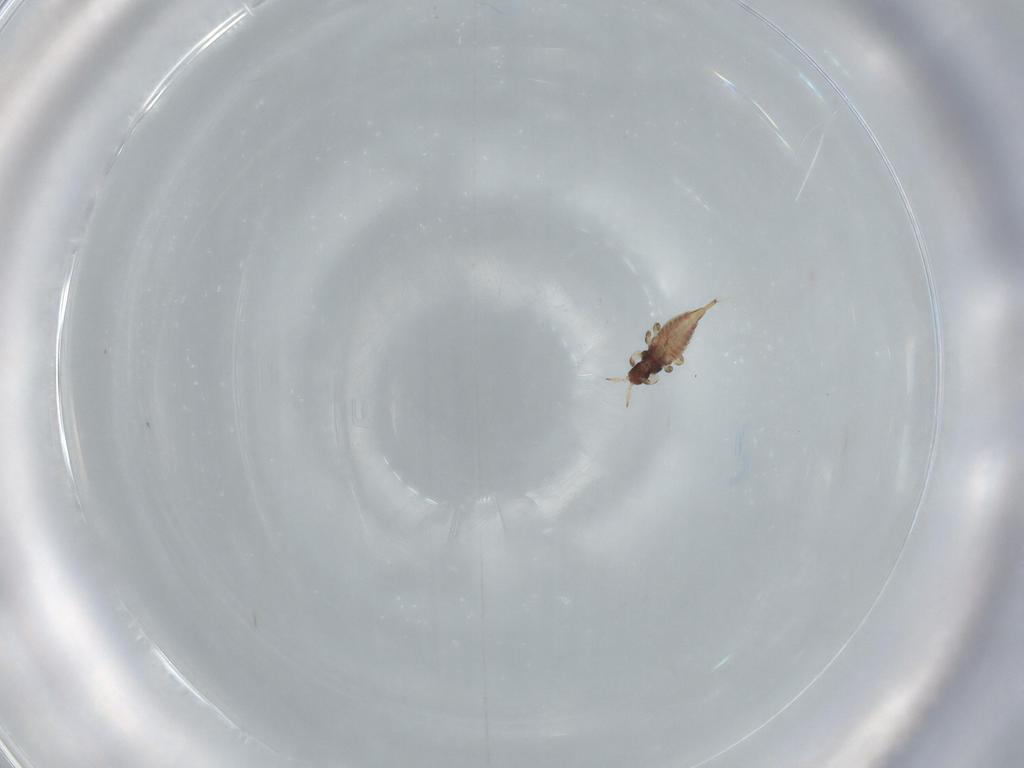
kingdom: Animalia
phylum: Arthropoda
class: Insecta
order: Thysanoptera
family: Phlaeothripidae
